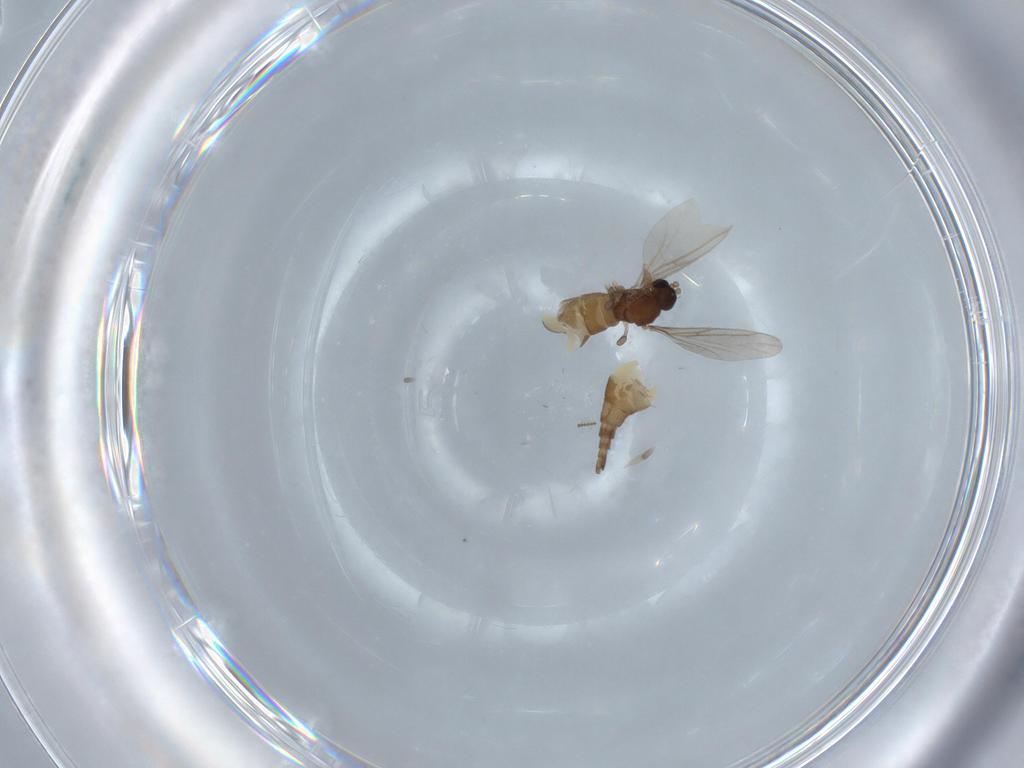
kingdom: Animalia
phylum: Arthropoda
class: Insecta
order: Diptera
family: Sciaridae
